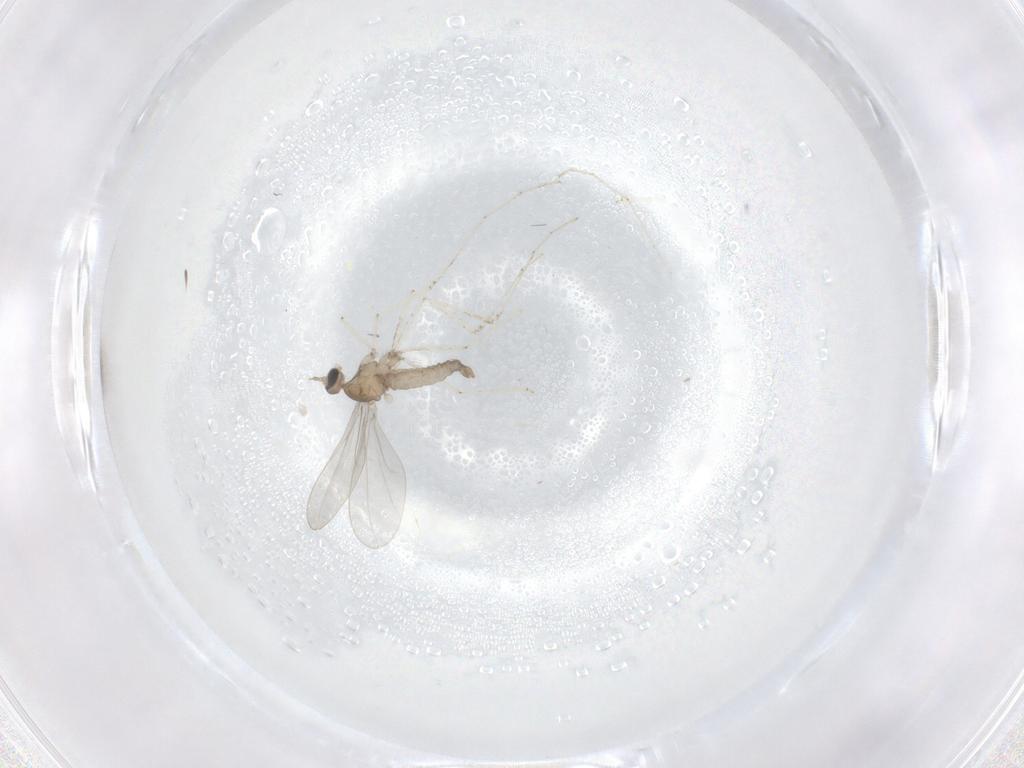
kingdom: Animalia
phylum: Arthropoda
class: Insecta
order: Diptera
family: Cecidomyiidae
